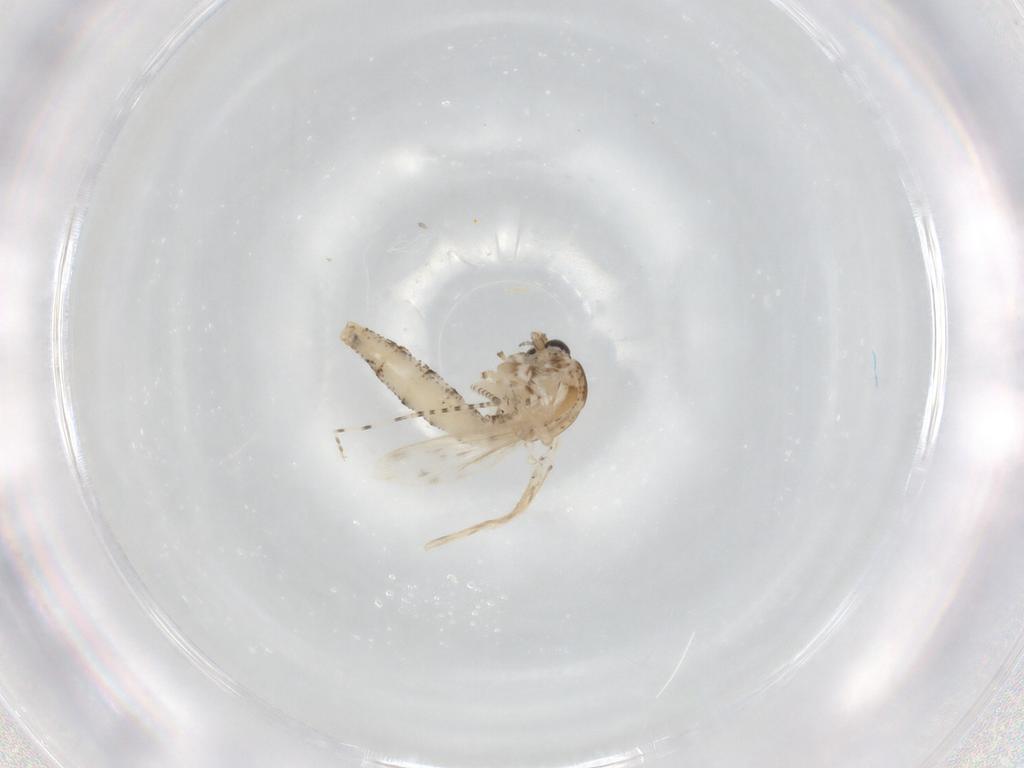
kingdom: Animalia
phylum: Arthropoda
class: Insecta
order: Diptera
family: Chaoboridae
